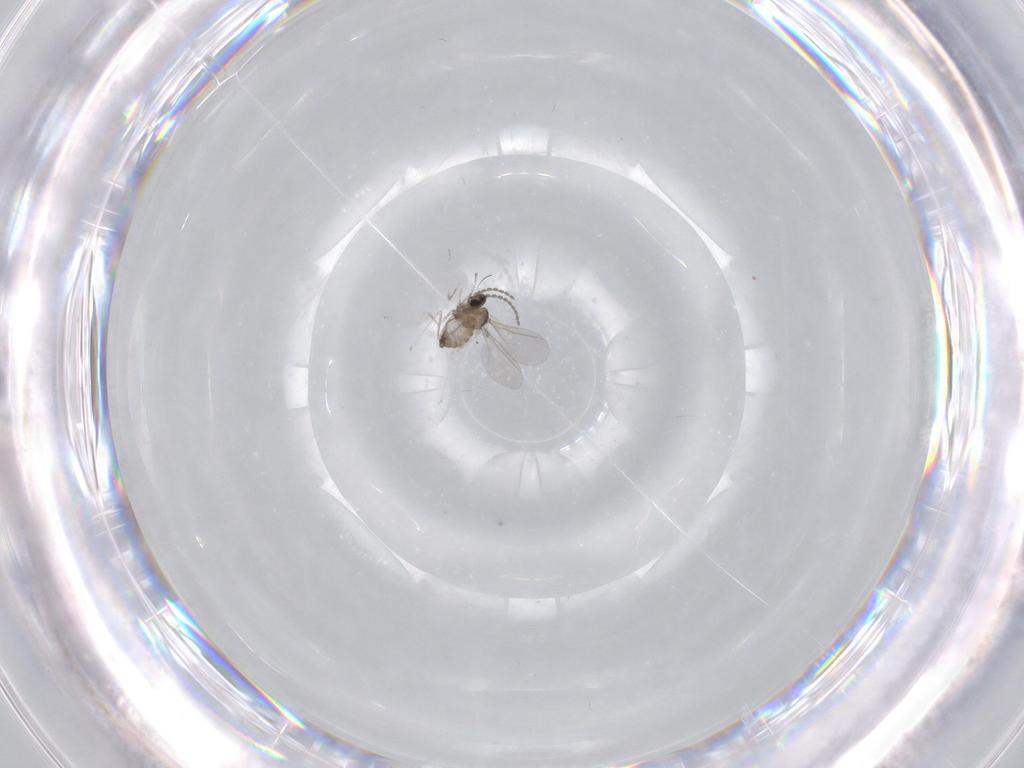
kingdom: Animalia
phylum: Arthropoda
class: Insecta
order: Diptera
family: Cecidomyiidae
